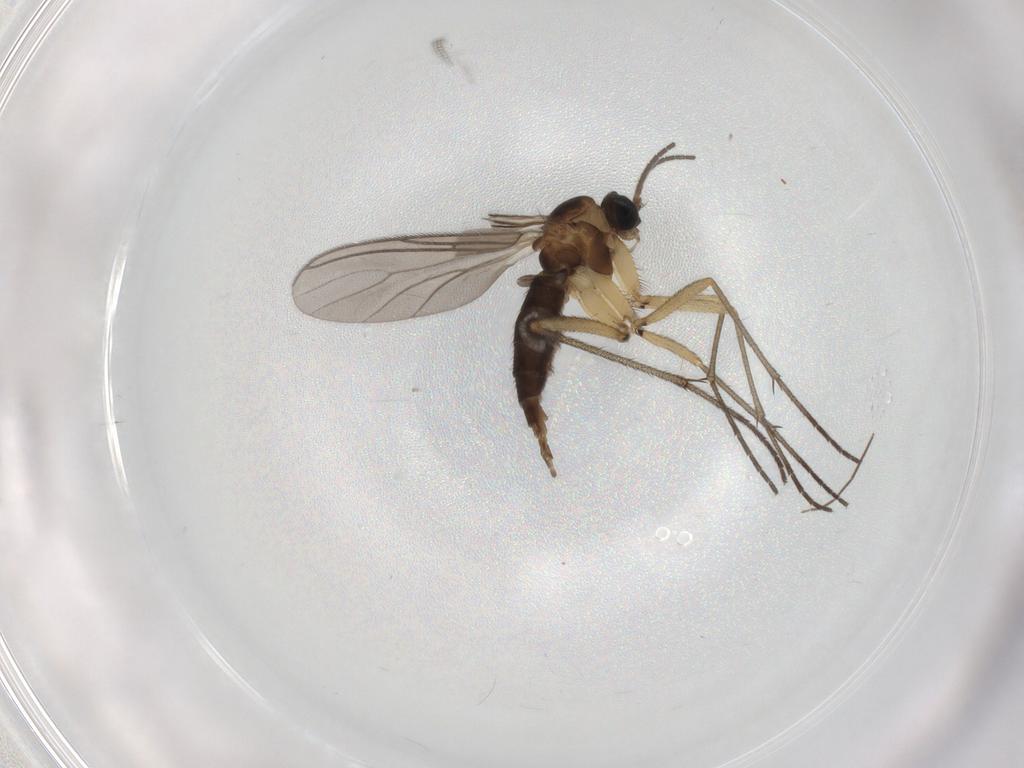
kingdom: Animalia
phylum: Arthropoda
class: Insecta
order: Diptera
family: Sciaridae
